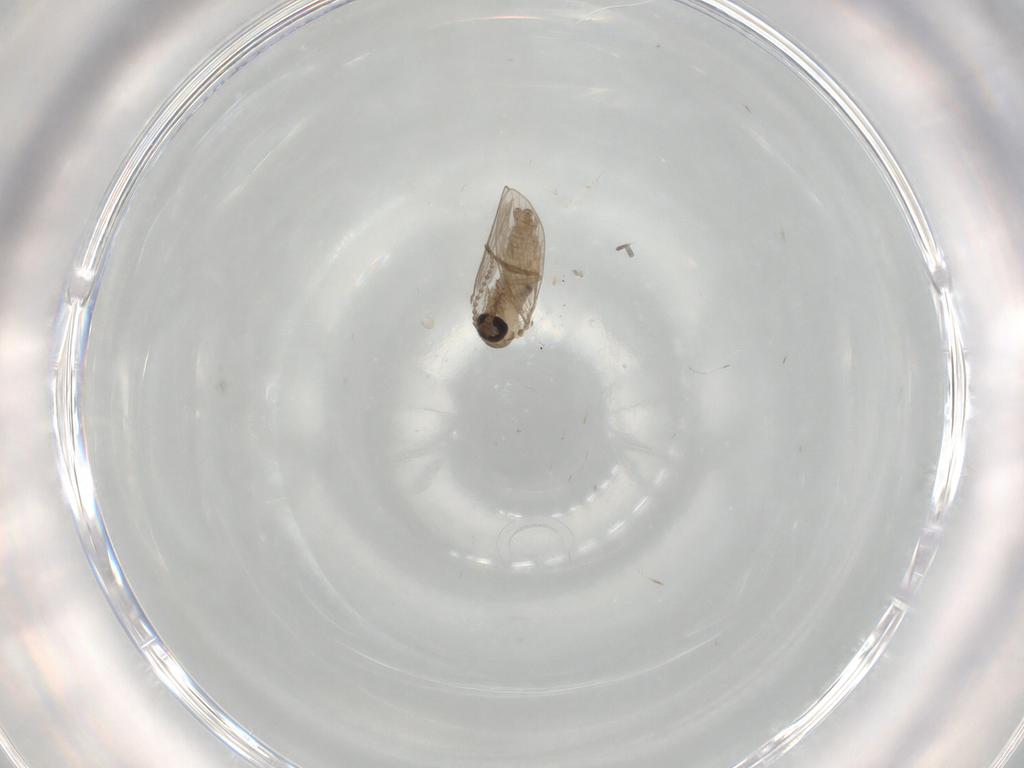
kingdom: Animalia
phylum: Arthropoda
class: Insecta
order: Diptera
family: Psychodidae
